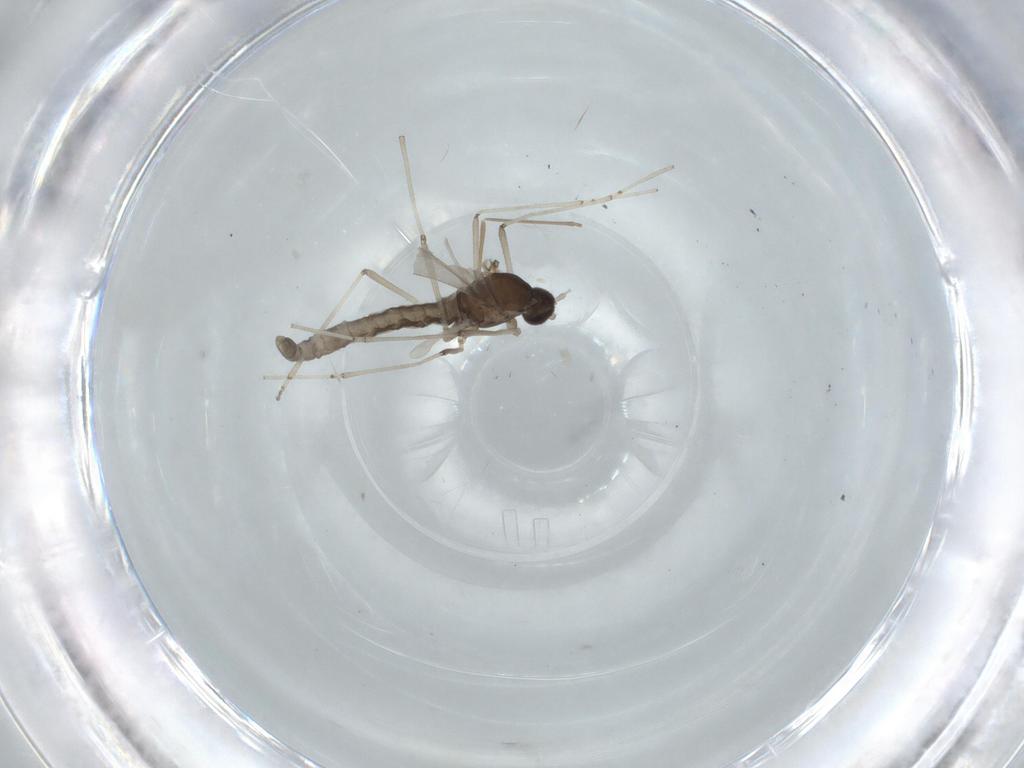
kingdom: Animalia
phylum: Arthropoda
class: Insecta
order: Diptera
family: Cecidomyiidae
